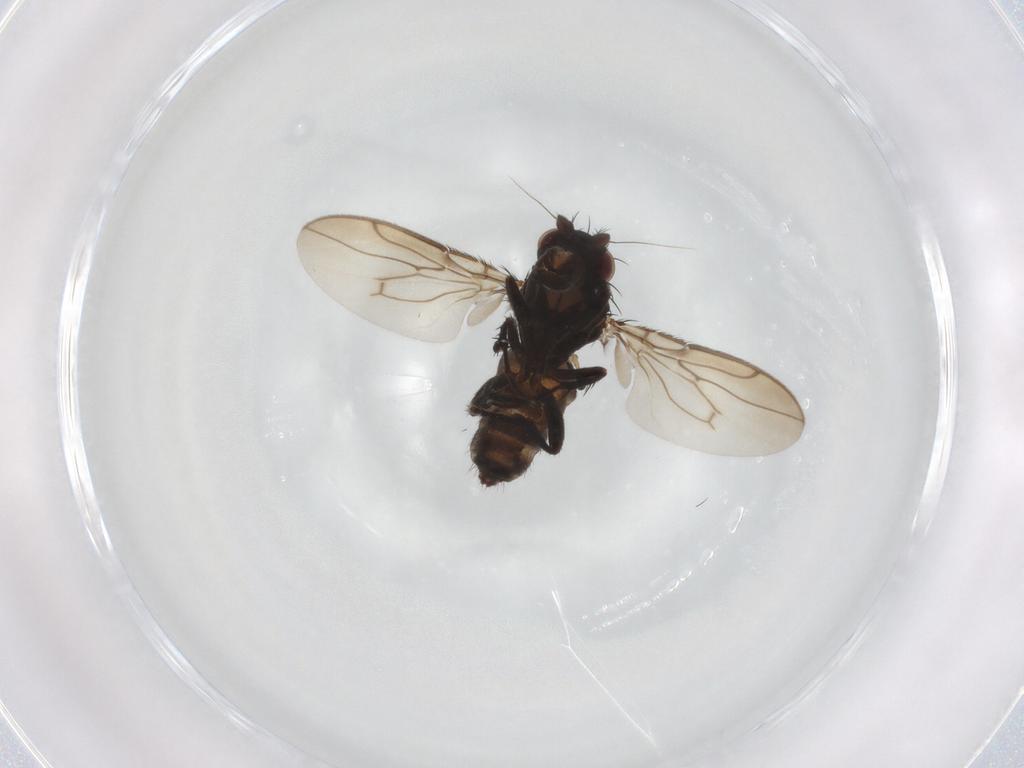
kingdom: Animalia
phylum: Arthropoda
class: Insecta
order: Diptera
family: Sphaeroceridae
